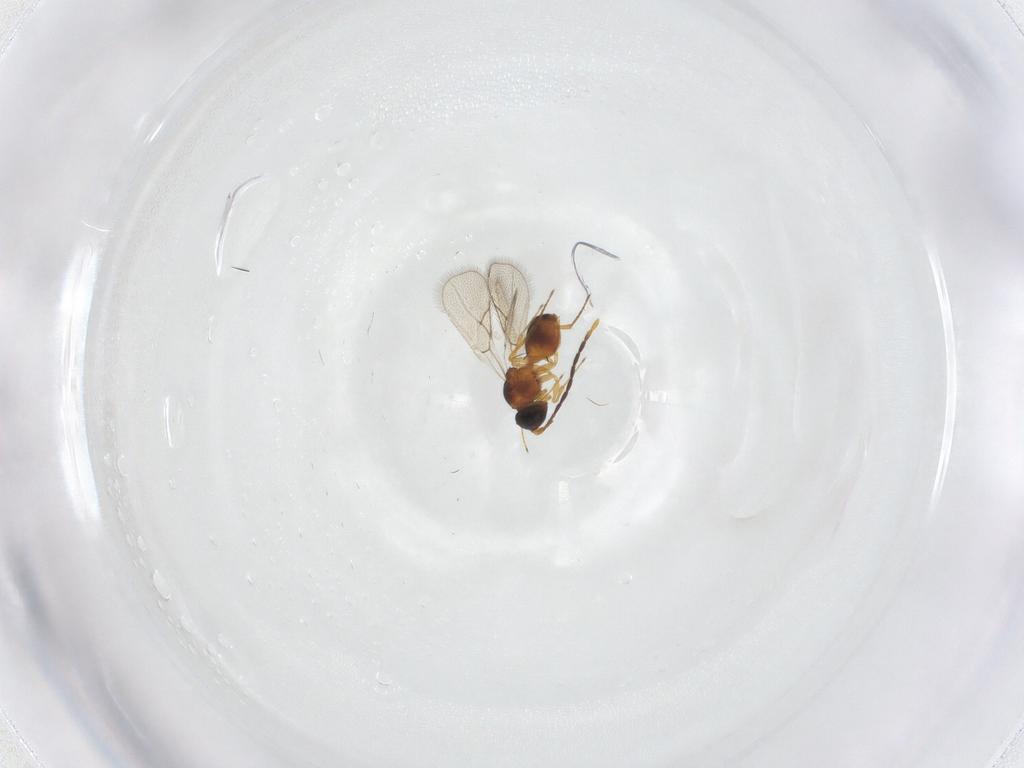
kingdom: Animalia
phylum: Arthropoda
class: Insecta
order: Hymenoptera
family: Figitidae
